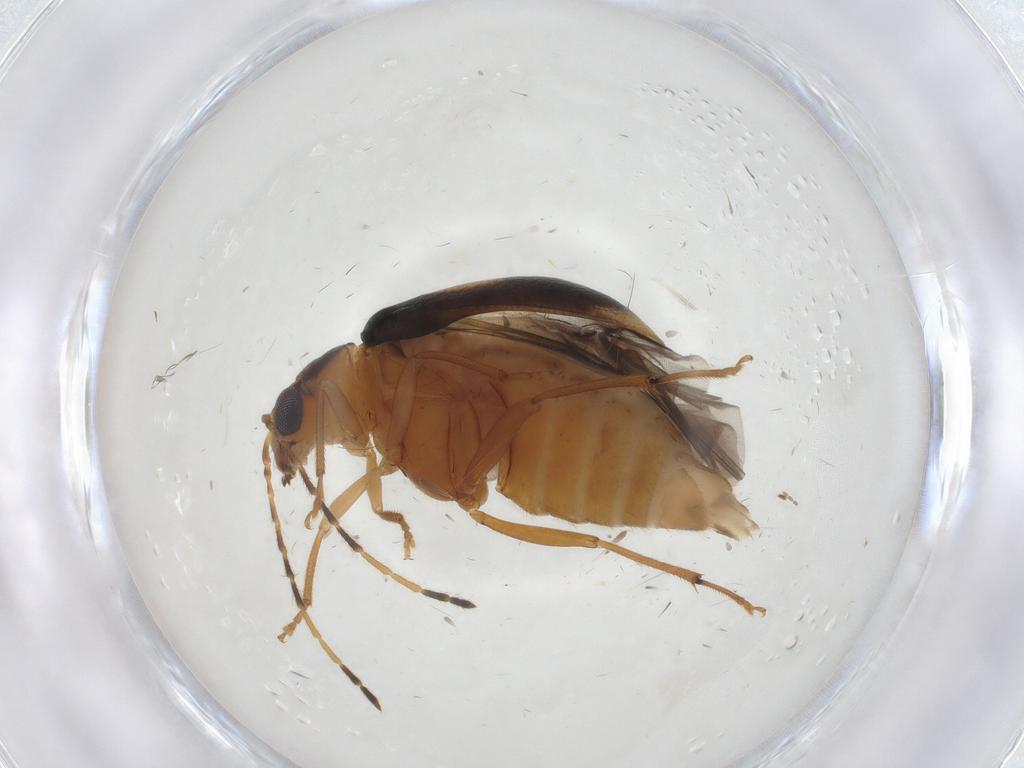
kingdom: Animalia
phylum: Arthropoda
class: Insecta
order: Coleoptera
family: Chrysomelidae
